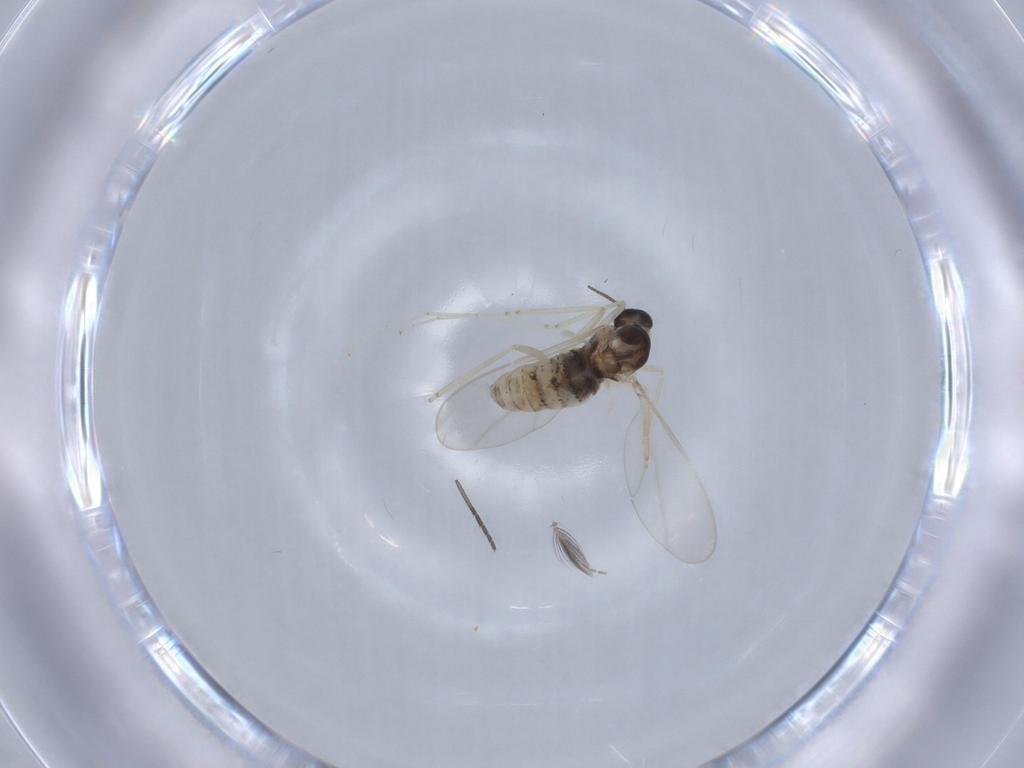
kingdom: Animalia
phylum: Arthropoda
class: Insecta
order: Diptera
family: Cecidomyiidae
